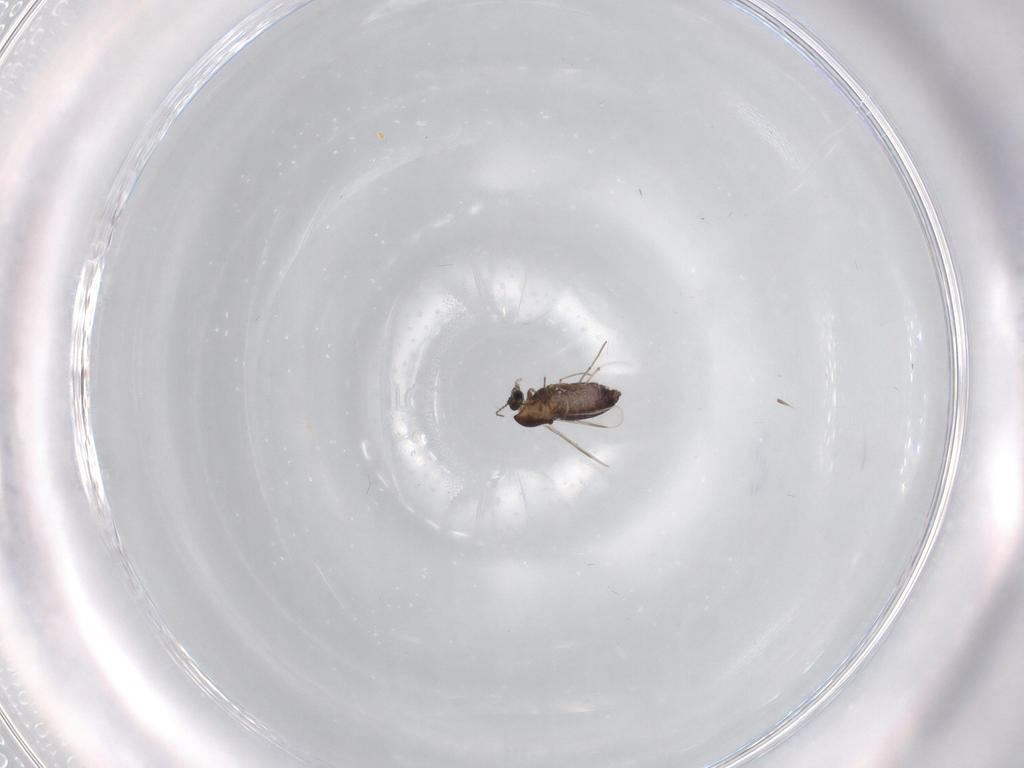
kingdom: Animalia
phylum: Arthropoda
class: Insecta
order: Diptera
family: Chironomidae
